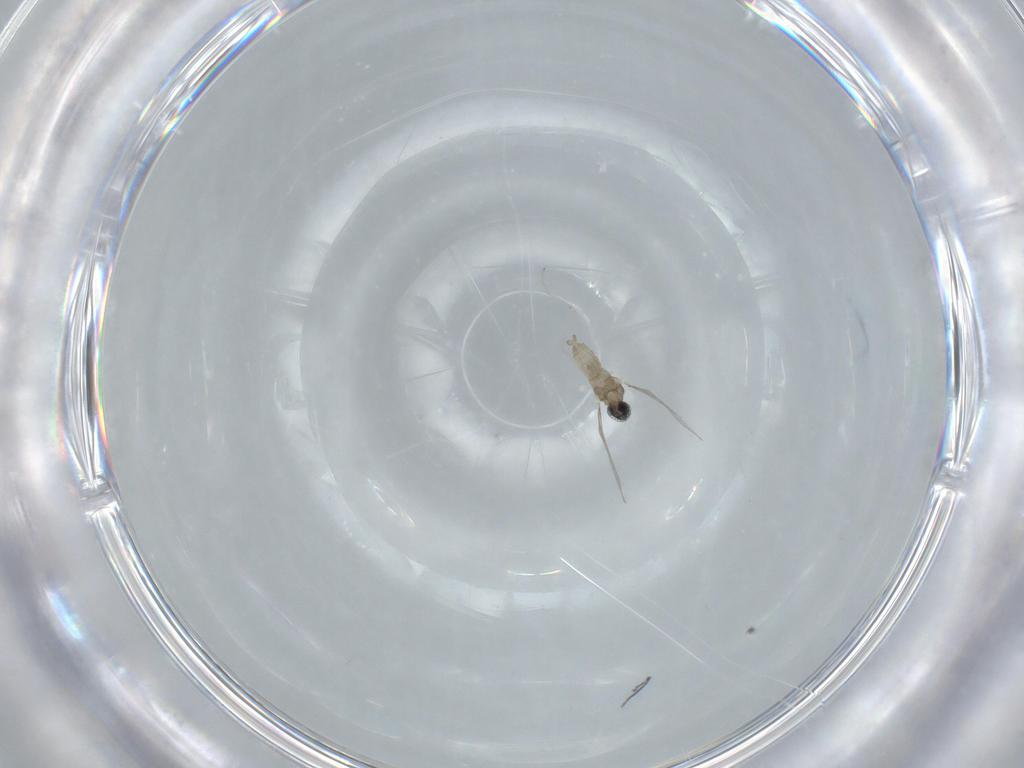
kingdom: Animalia
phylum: Arthropoda
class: Insecta
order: Diptera
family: Cecidomyiidae
